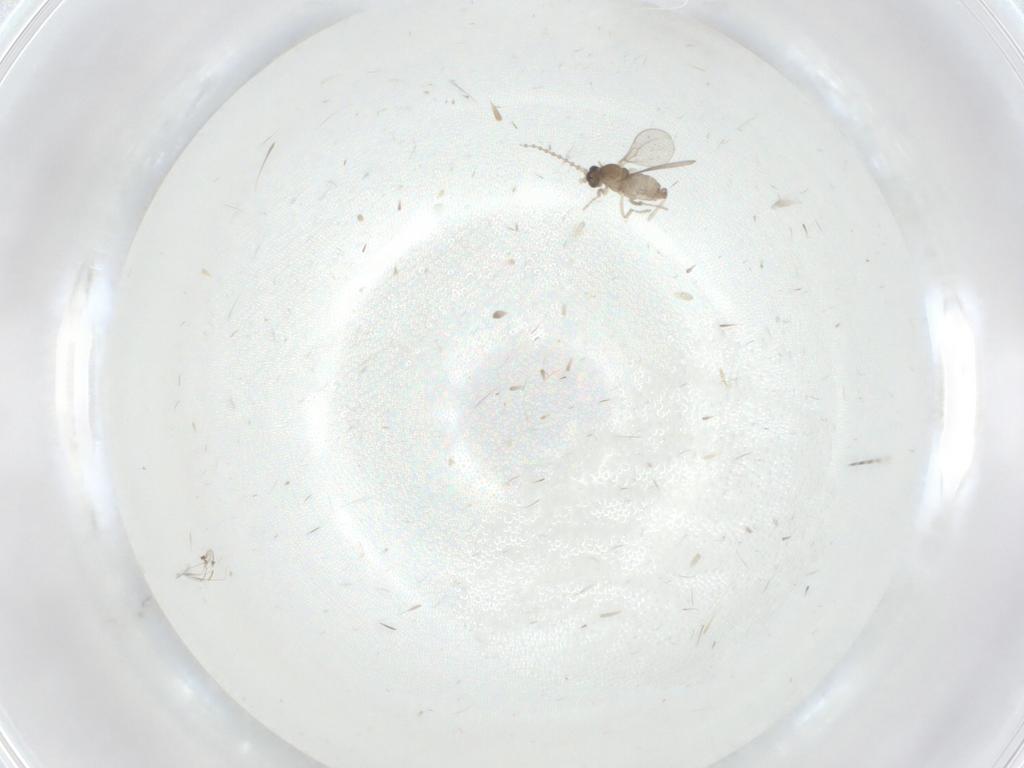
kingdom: Animalia
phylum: Arthropoda
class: Insecta
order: Diptera
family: Cecidomyiidae
